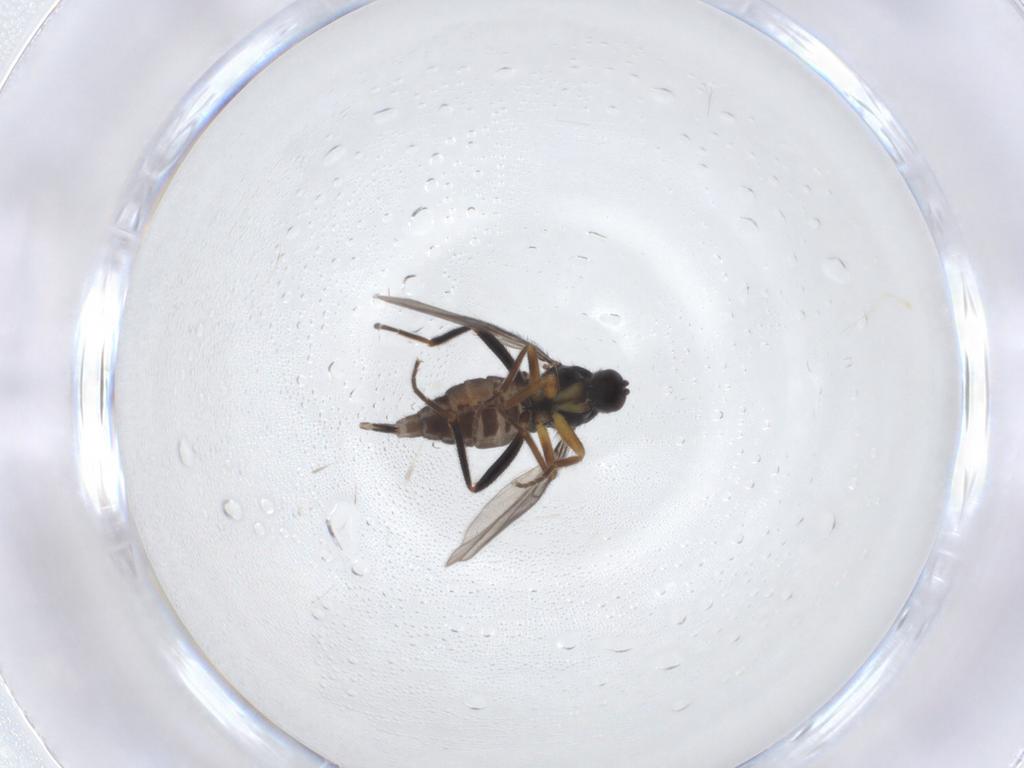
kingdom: Animalia
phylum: Arthropoda
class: Insecta
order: Diptera
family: Hybotidae
